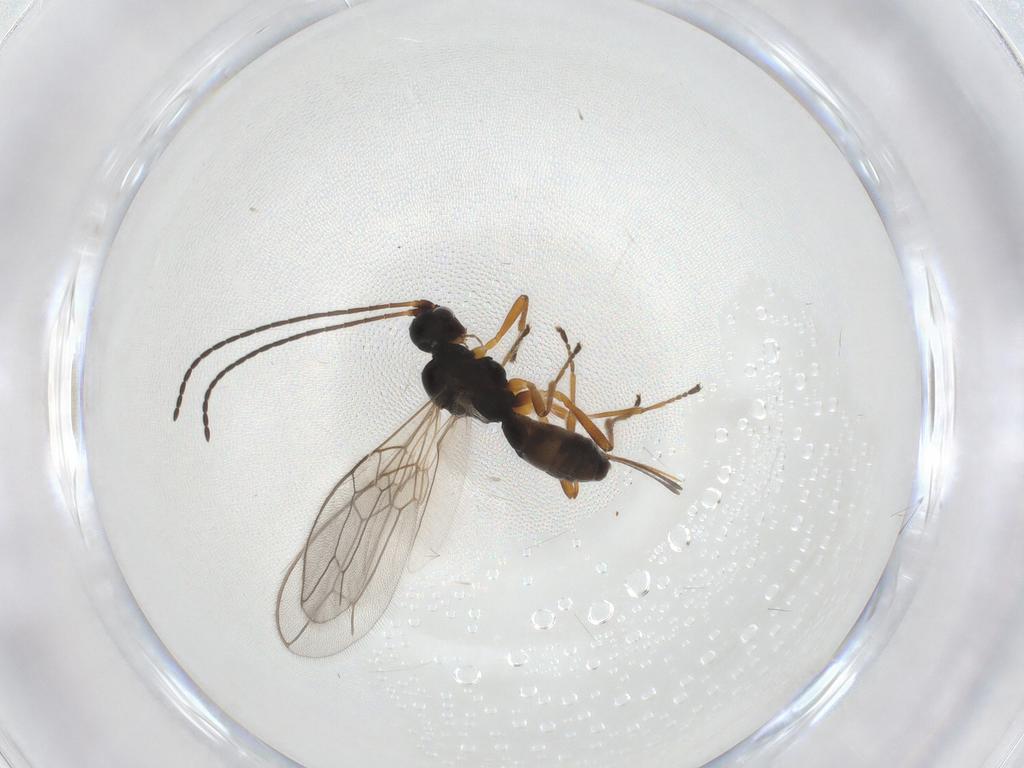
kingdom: Animalia
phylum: Arthropoda
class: Insecta
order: Hymenoptera
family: Braconidae
